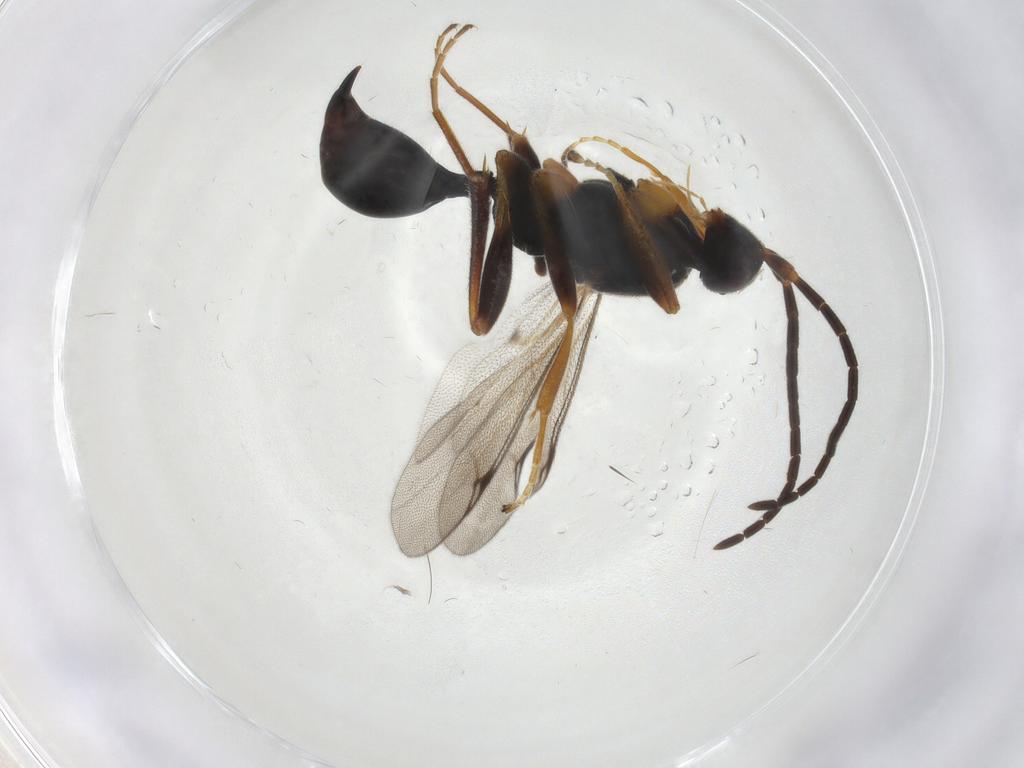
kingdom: Animalia
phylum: Arthropoda
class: Insecta
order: Hymenoptera
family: Proctotrupidae
